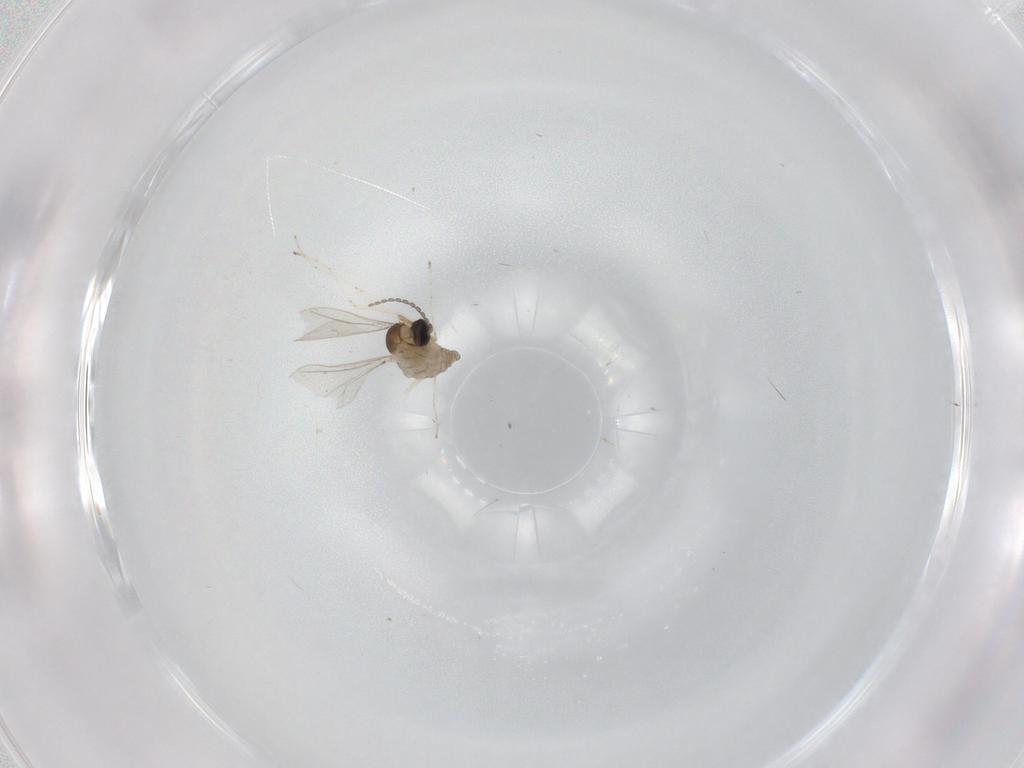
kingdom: Animalia
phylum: Arthropoda
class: Insecta
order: Diptera
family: Cecidomyiidae
